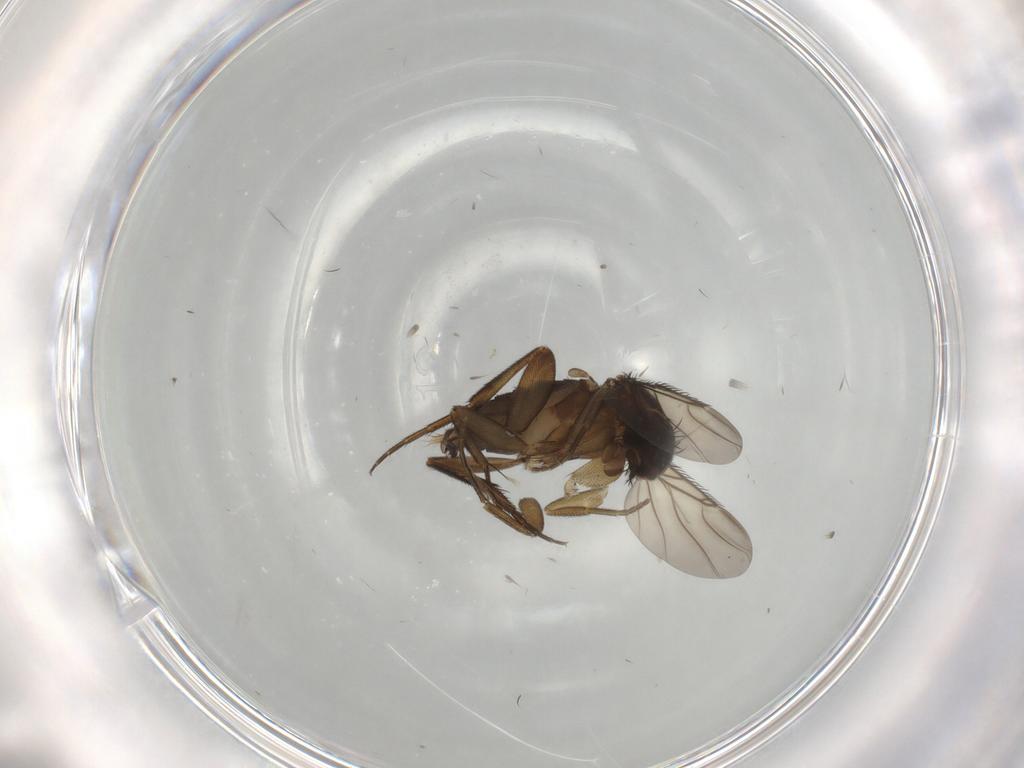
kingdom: Animalia
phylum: Arthropoda
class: Insecta
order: Diptera
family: Phoridae
